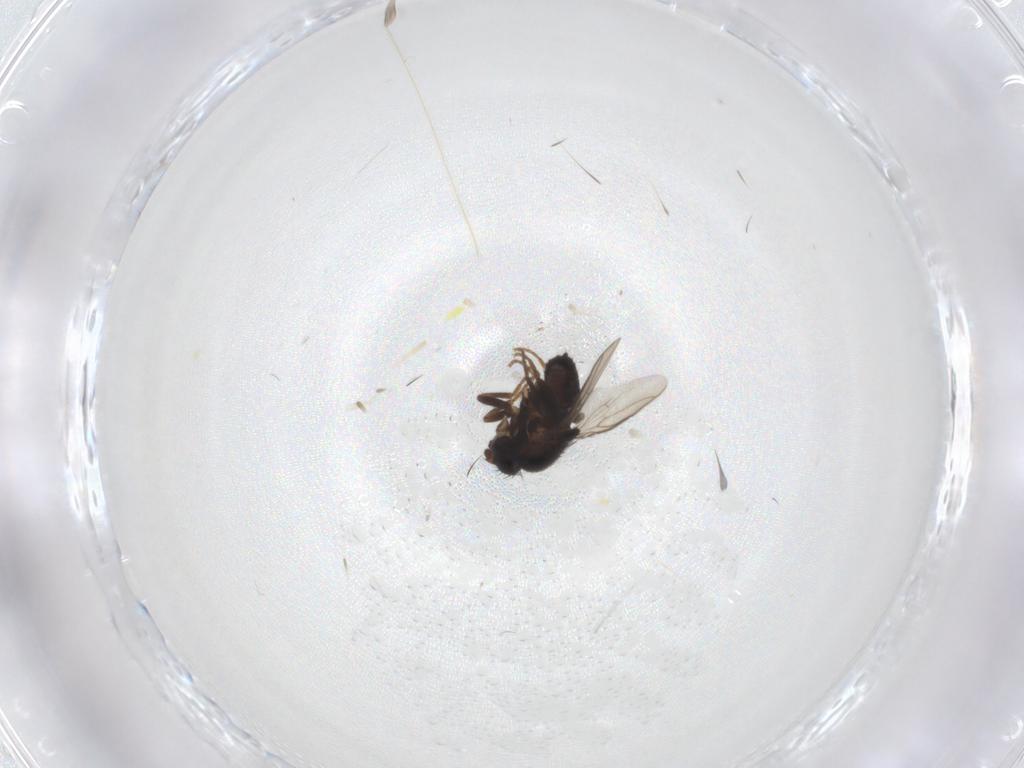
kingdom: Animalia
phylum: Arthropoda
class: Insecta
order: Diptera
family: Sphaeroceridae
